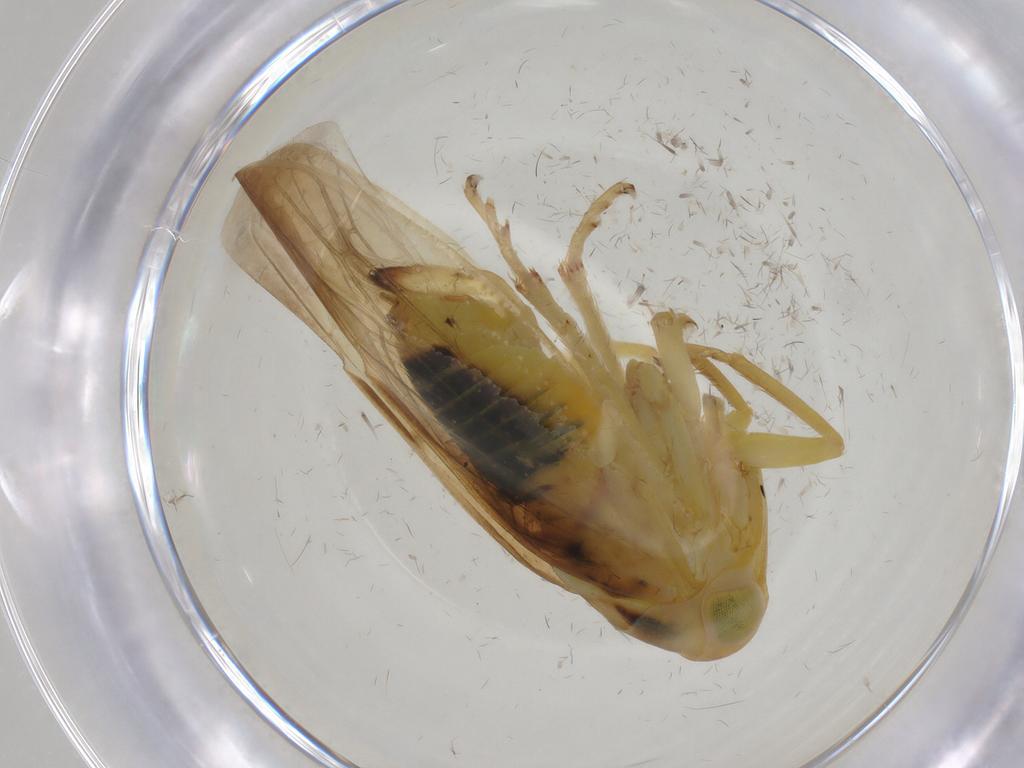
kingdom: Animalia
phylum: Arthropoda
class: Insecta
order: Hemiptera
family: Cicadellidae
